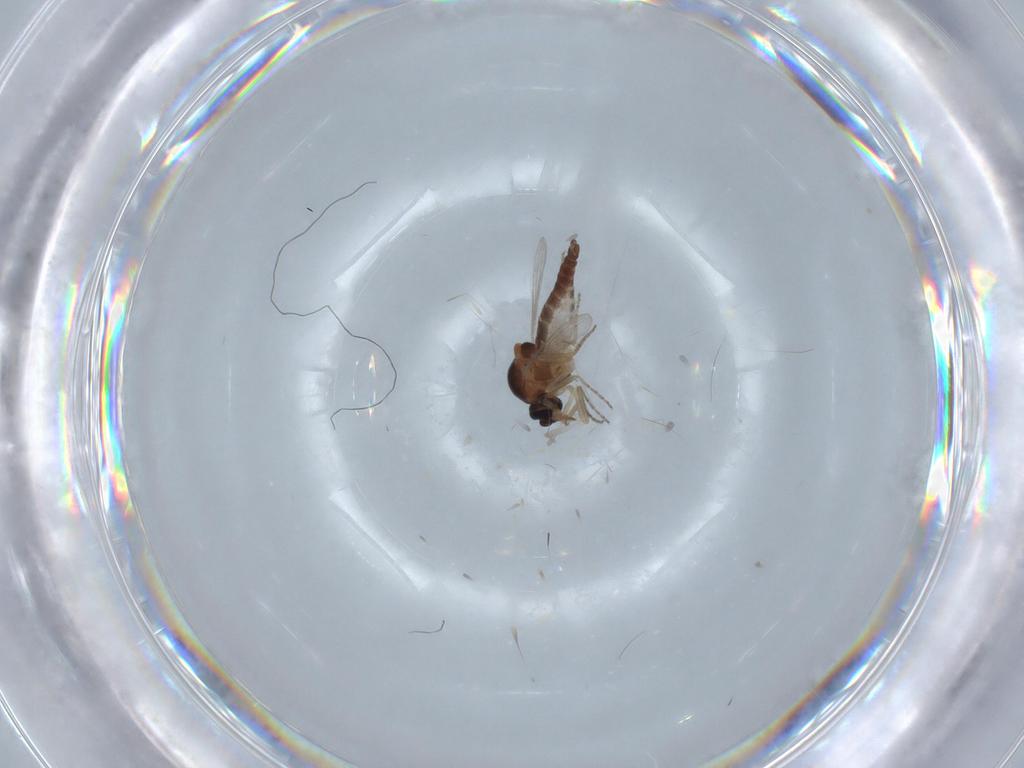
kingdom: Animalia
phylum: Arthropoda
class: Insecta
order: Diptera
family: Ceratopogonidae
